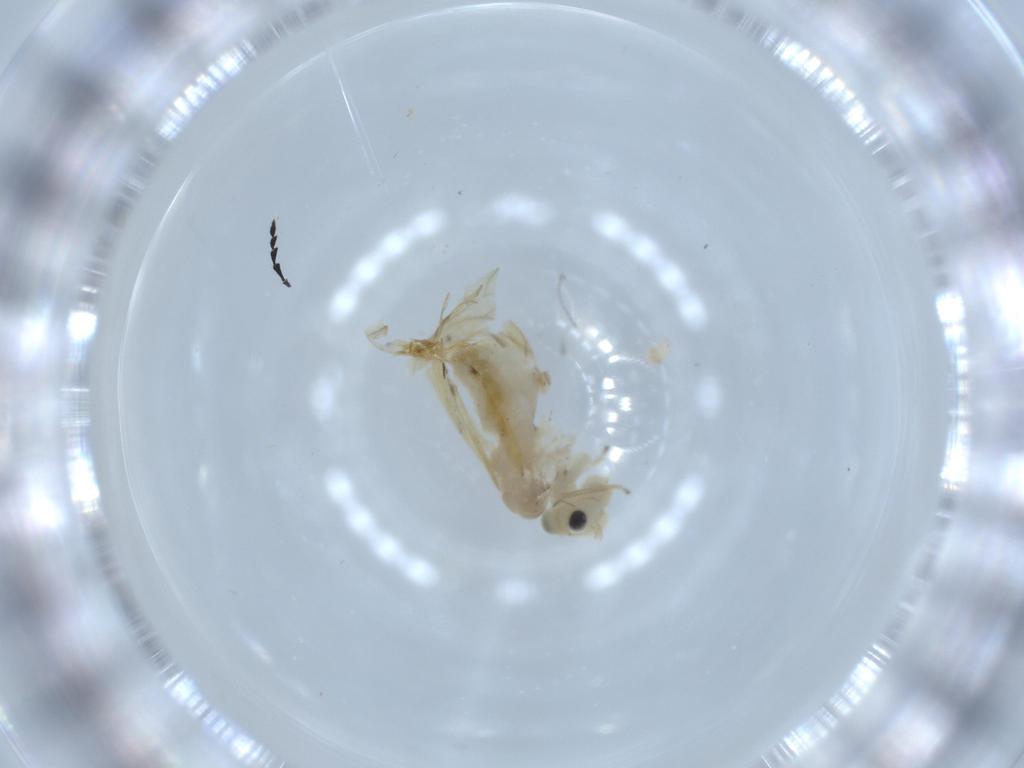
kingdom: Animalia
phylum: Arthropoda
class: Insecta
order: Psocodea
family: Caeciliusidae
